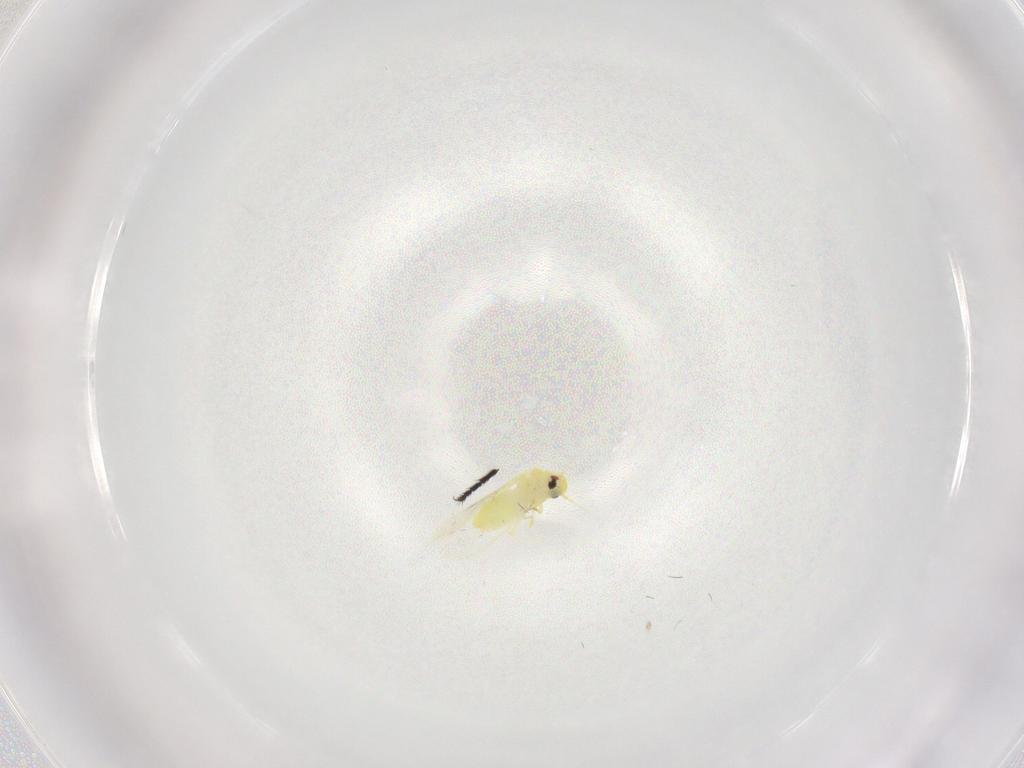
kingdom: Animalia
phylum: Arthropoda
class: Insecta
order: Hemiptera
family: Aleyrodidae
